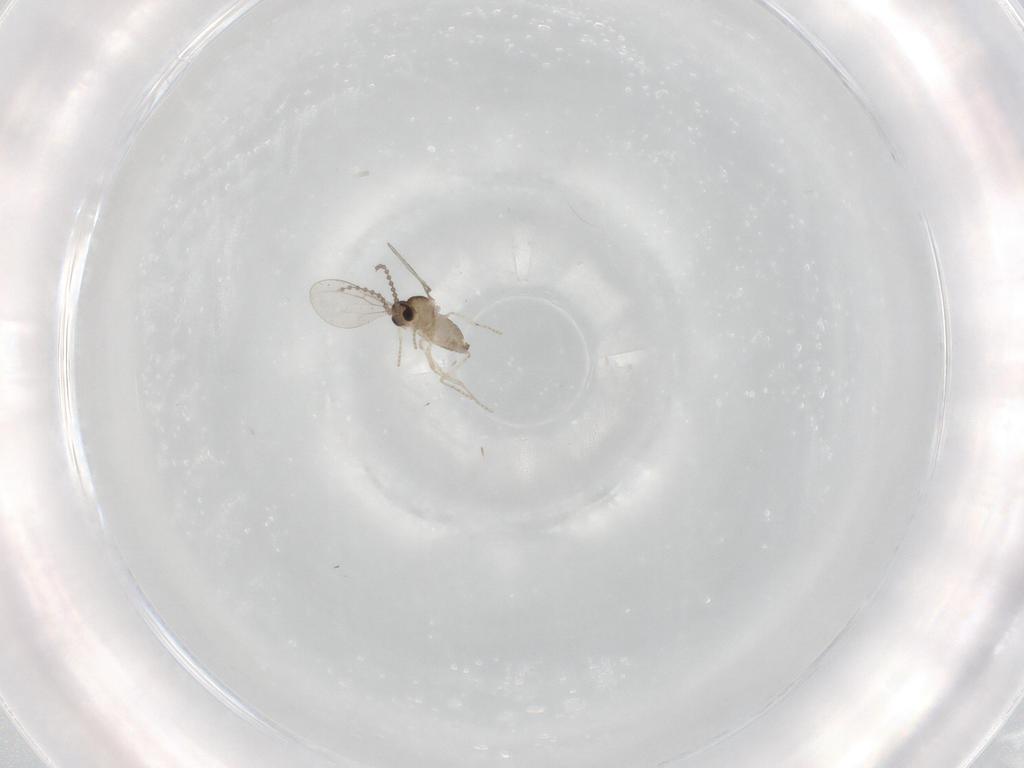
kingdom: Animalia
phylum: Arthropoda
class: Insecta
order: Diptera
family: Cecidomyiidae
